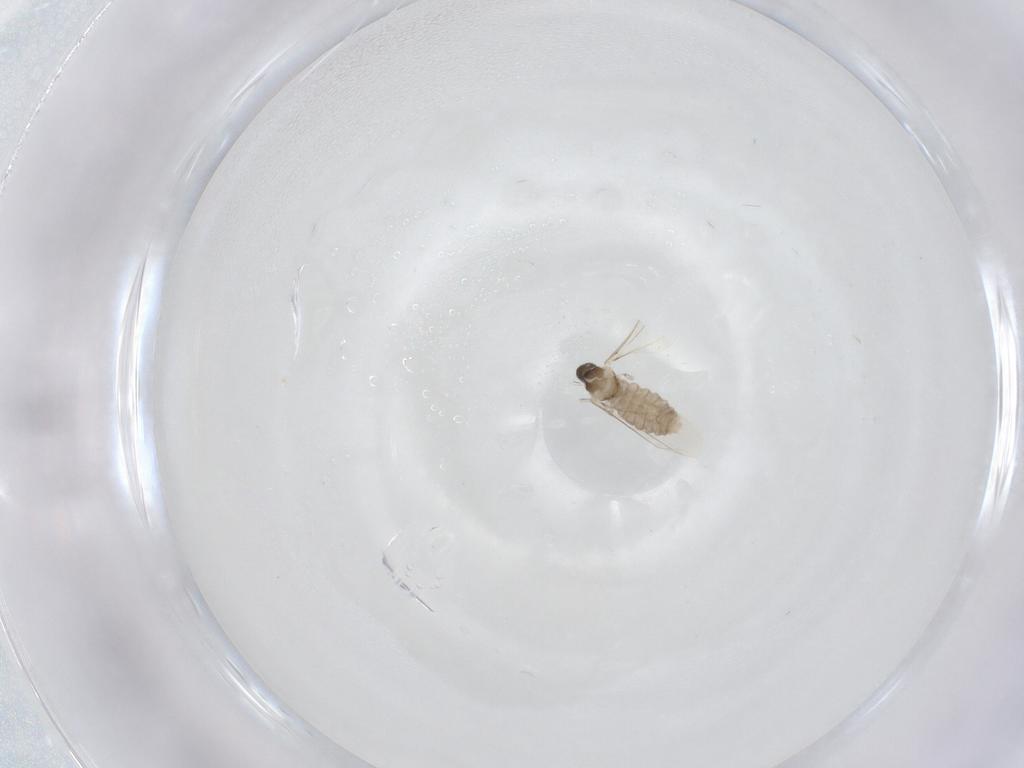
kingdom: Animalia
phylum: Arthropoda
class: Insecta
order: Diptera
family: Cecidomyiidae
